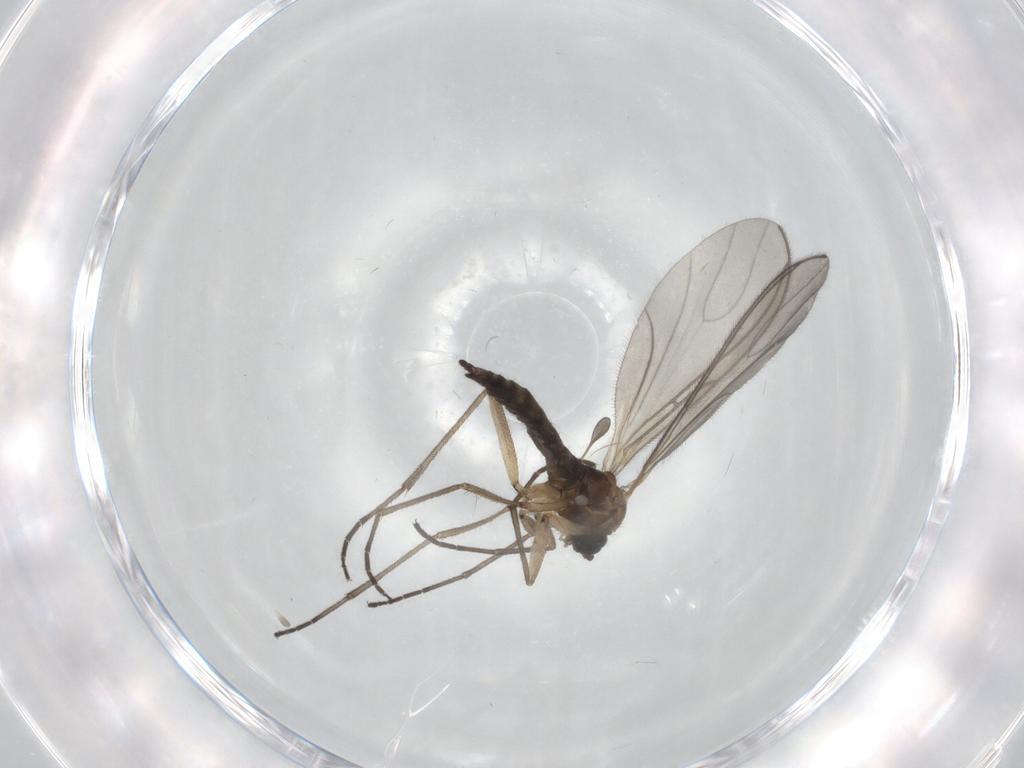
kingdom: Animalia
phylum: Arthropoda
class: Insecta
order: Diptera
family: Sciaridae
